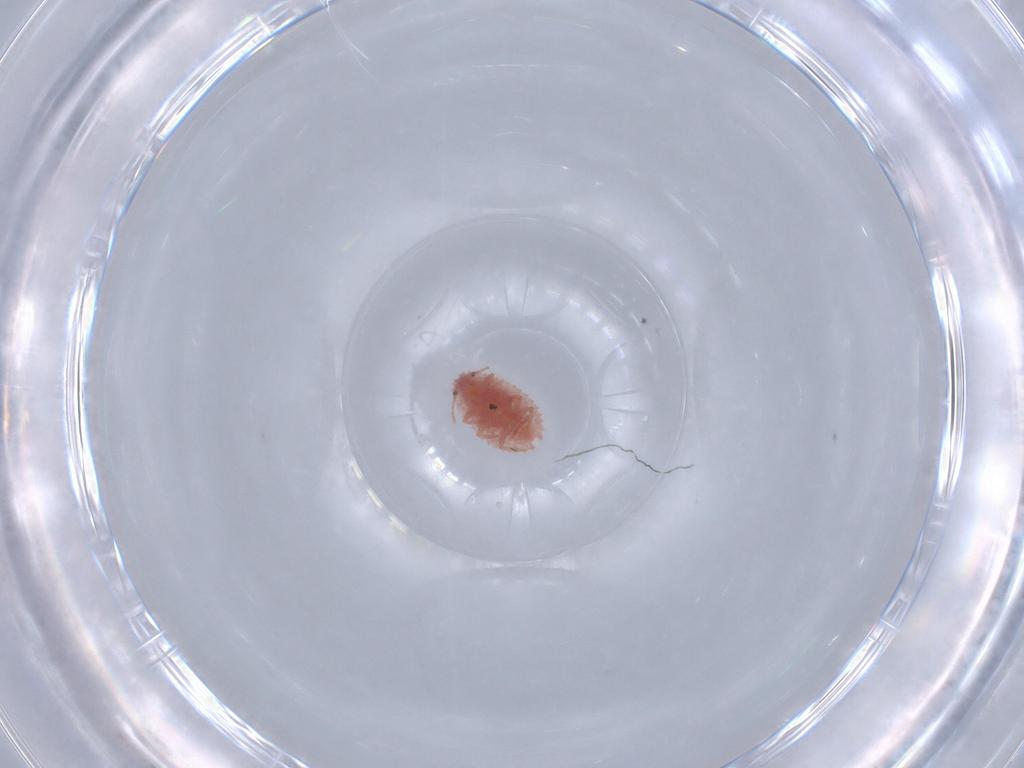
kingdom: Animalia
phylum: Arthropoda
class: Insecta
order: Hemiptera
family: Coccoidea_incertae_sedis
